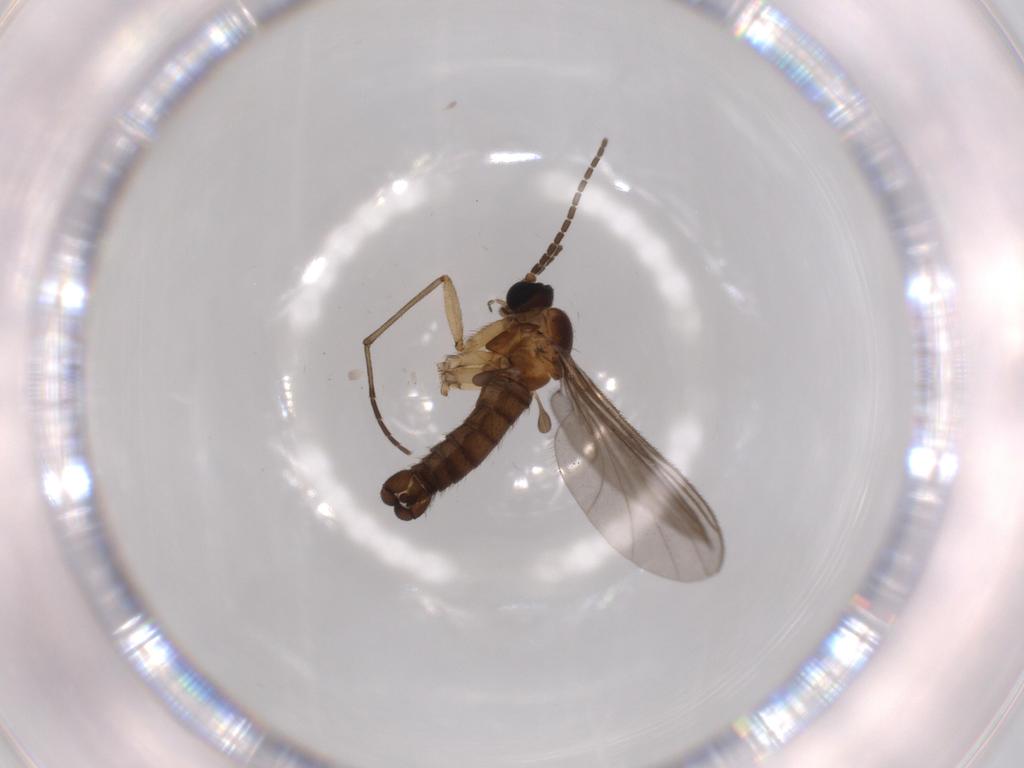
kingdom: Animalia
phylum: Arthropoda
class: Insecta
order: Diptera
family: Sciaridae
